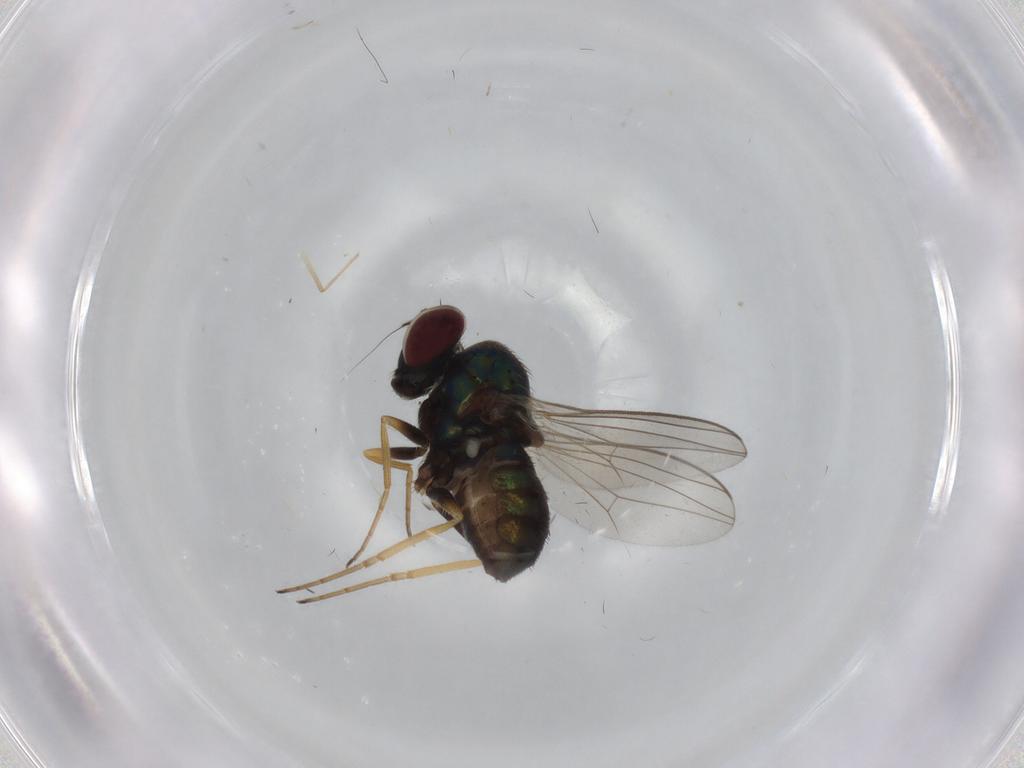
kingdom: Animalia
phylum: Arthropoda
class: Insecta
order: Diptera
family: Dolichopodidae
